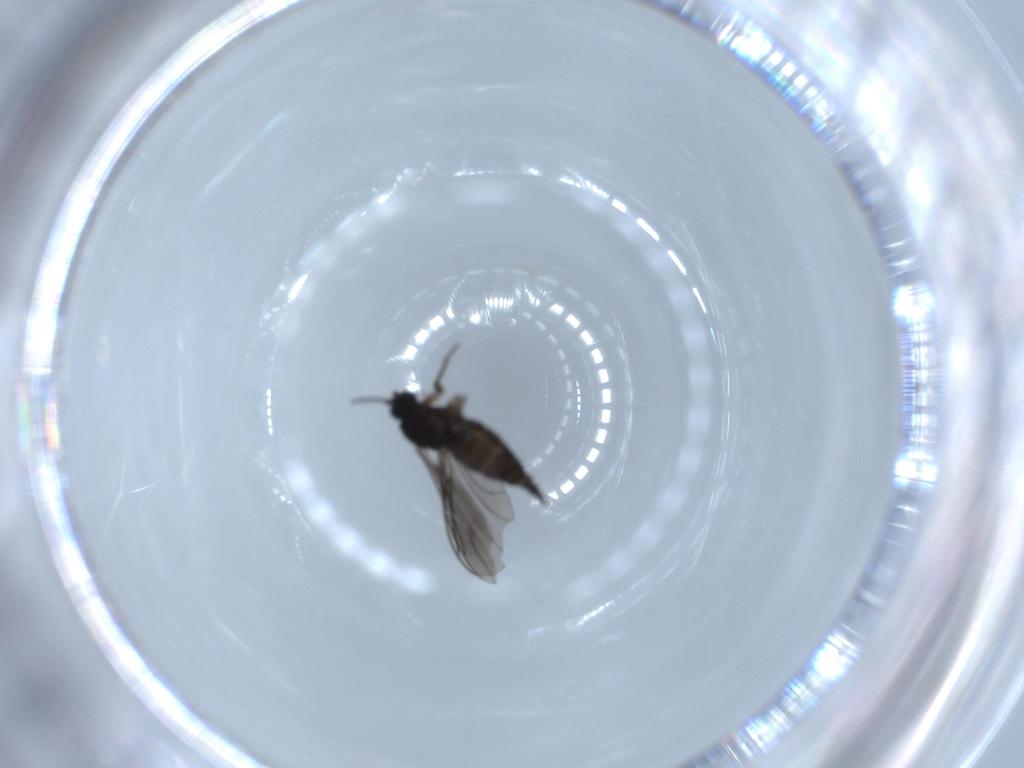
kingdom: Animalia
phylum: Arthropoda
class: Insecta
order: Diptera
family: Sciaridae
